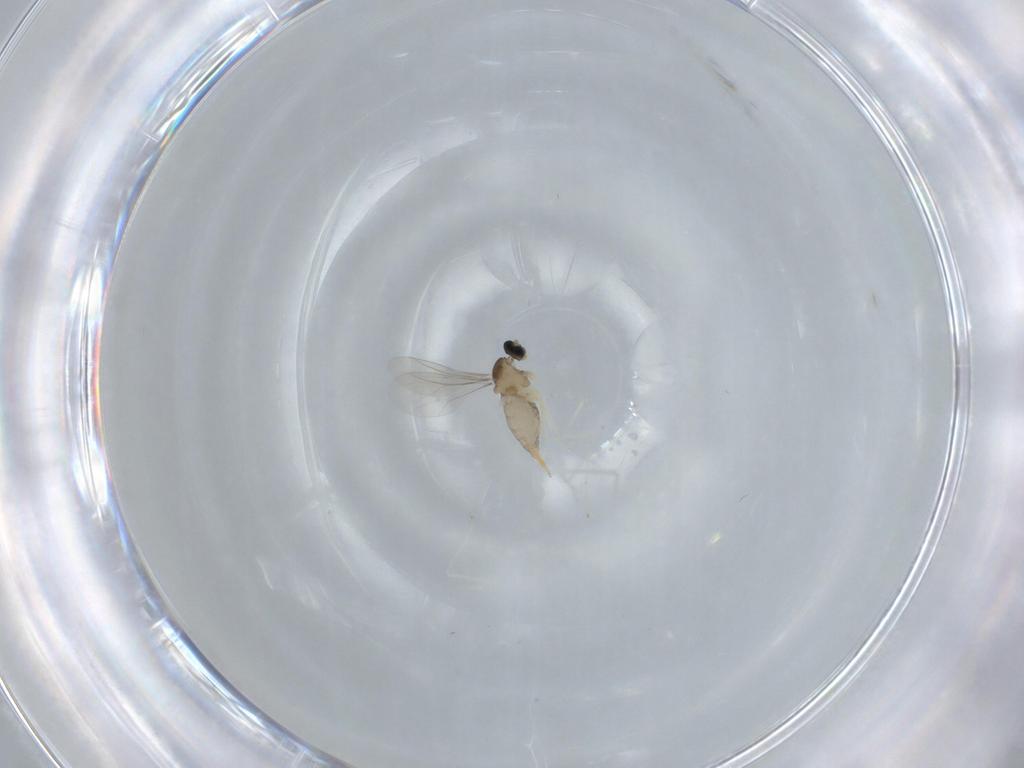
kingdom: Animalia
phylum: Arthropoda
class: Insecta
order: Diptera
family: Cecidomyiidae
